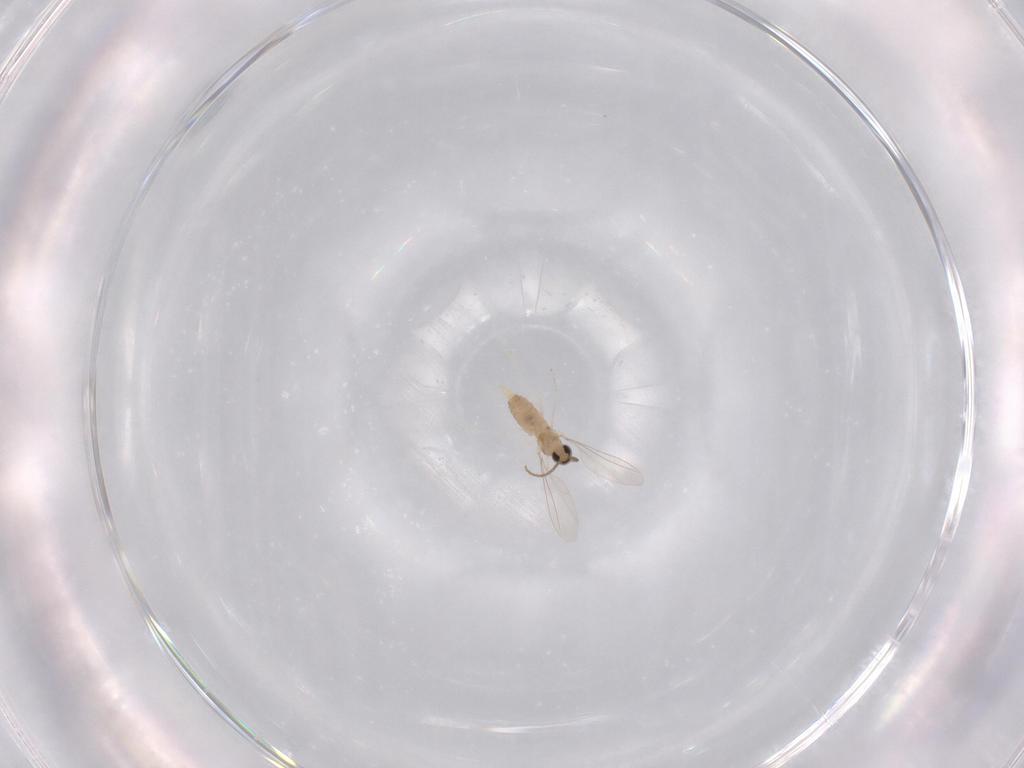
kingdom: Animalia
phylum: Arthropoda
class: Insecta
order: Diptera
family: Cecidomyiidae
